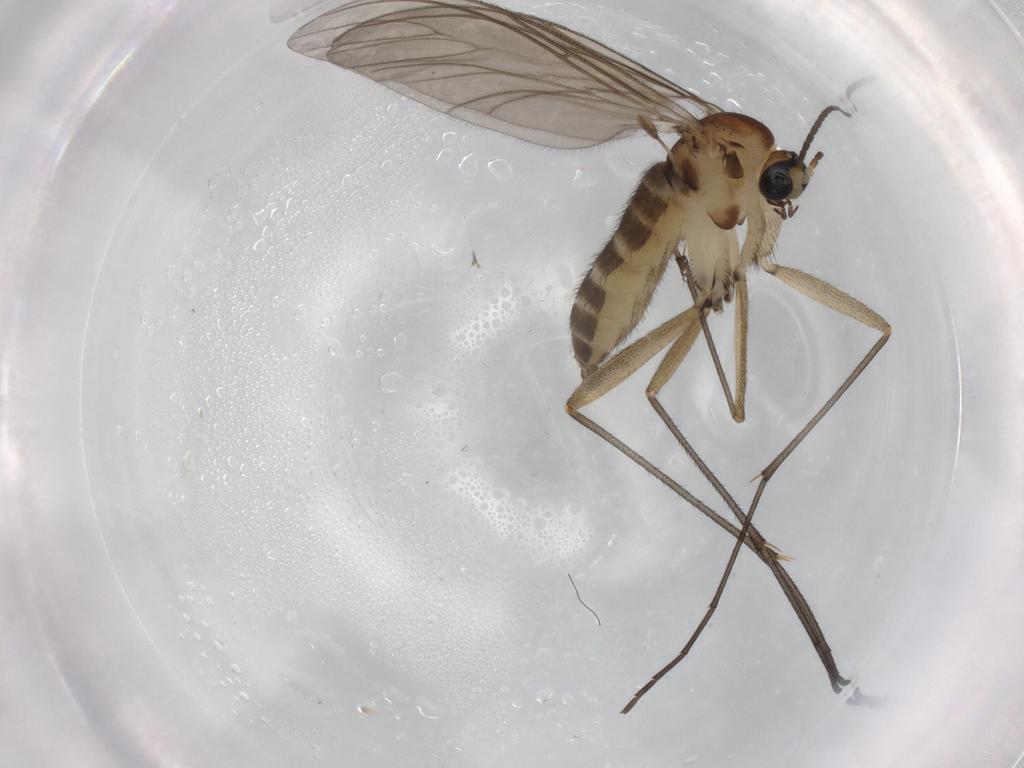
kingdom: Animalia
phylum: Arthropoda
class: Insecta
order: Diptera
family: Sciaridae
